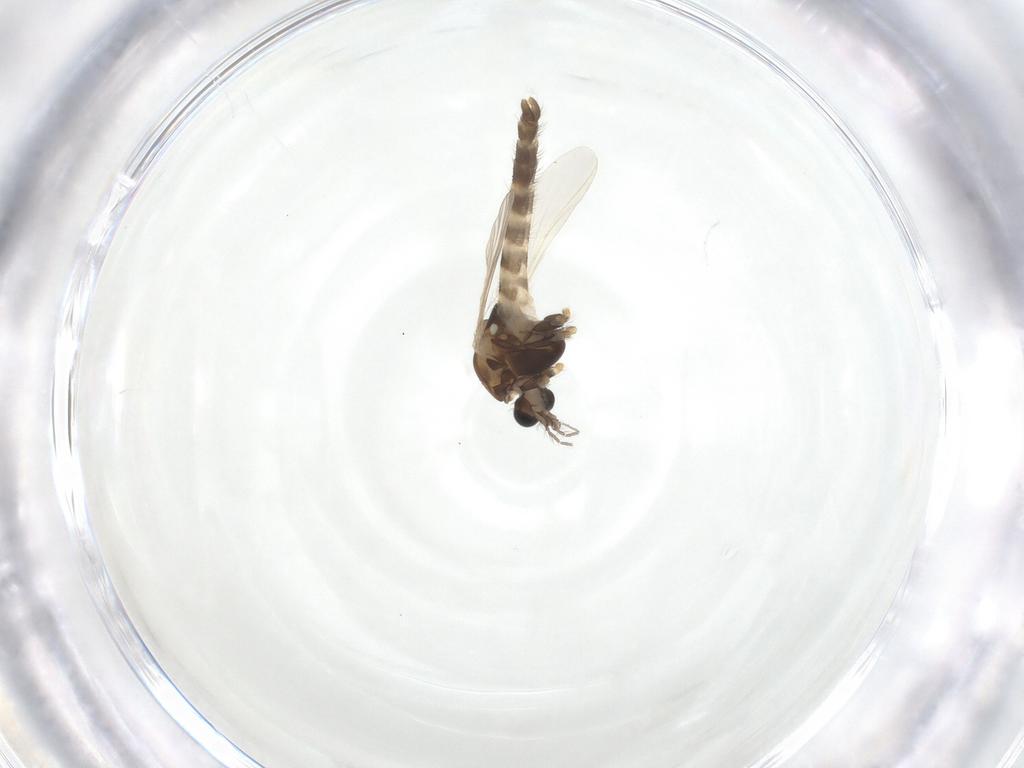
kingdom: Animalia
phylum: Arthropoda
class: Insecta
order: Diptera
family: Chironomidae
